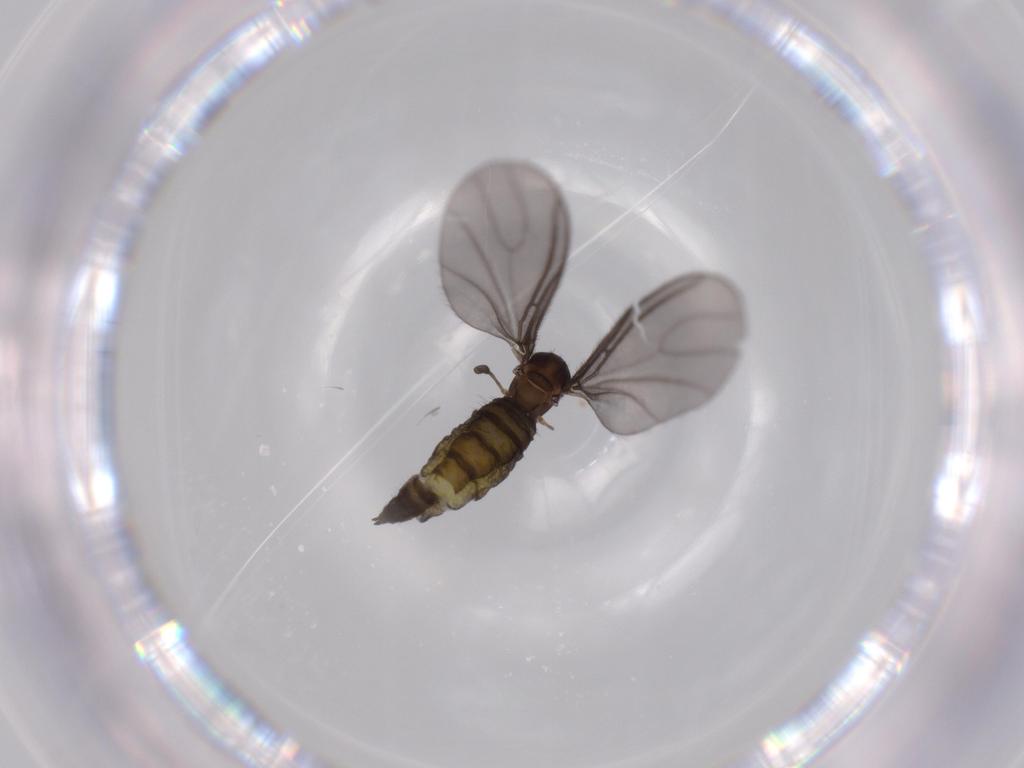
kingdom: Animalia
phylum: Arthropoda
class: Insecta
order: Diptera
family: Sciaridae
